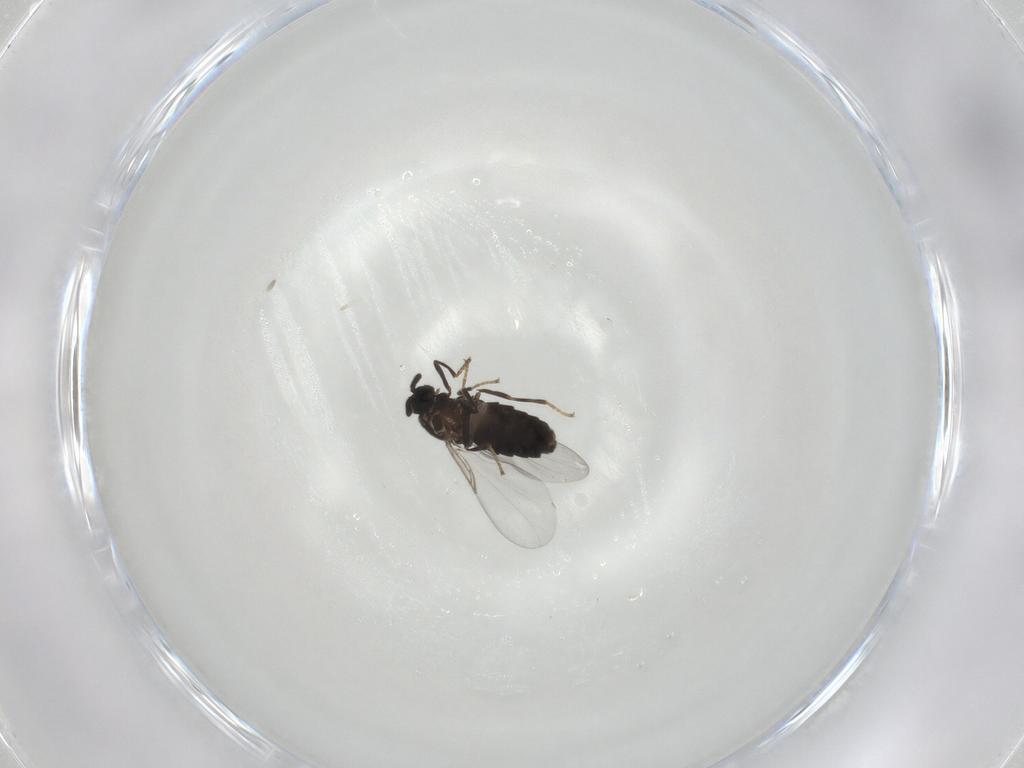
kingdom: Animalia
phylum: Arthropoda
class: Insecta
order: Diptera
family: Scatopsidae
